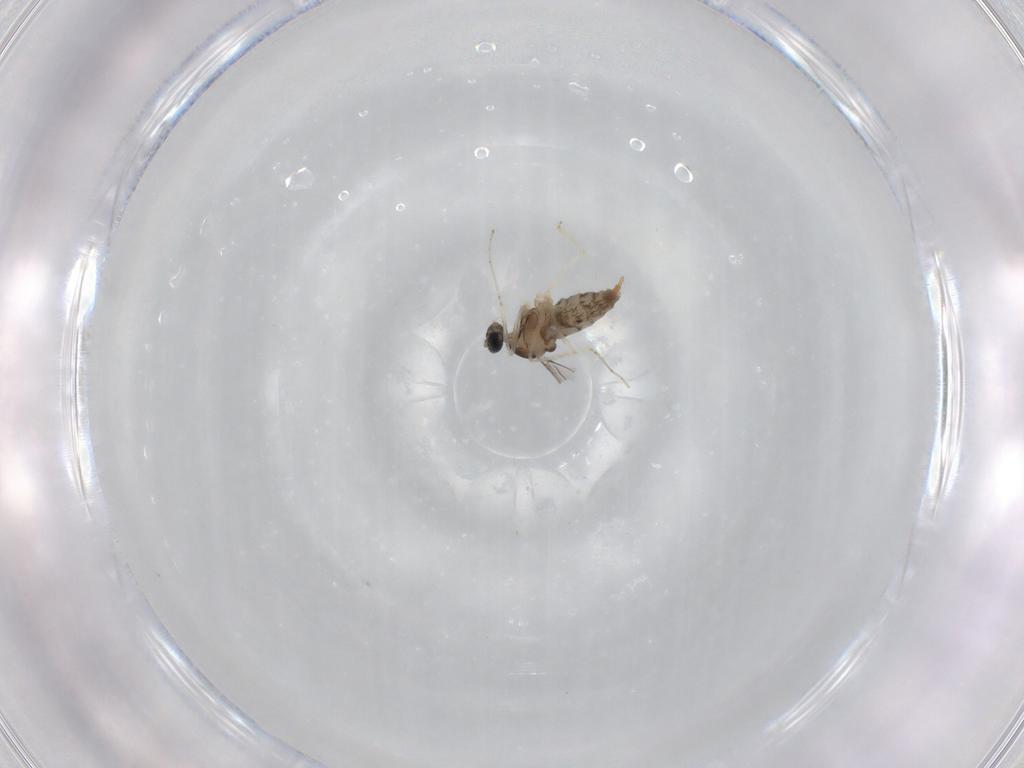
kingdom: Animalia
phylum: Arthropoda
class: Insecta
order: Diptera
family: Cecidomyiidae
